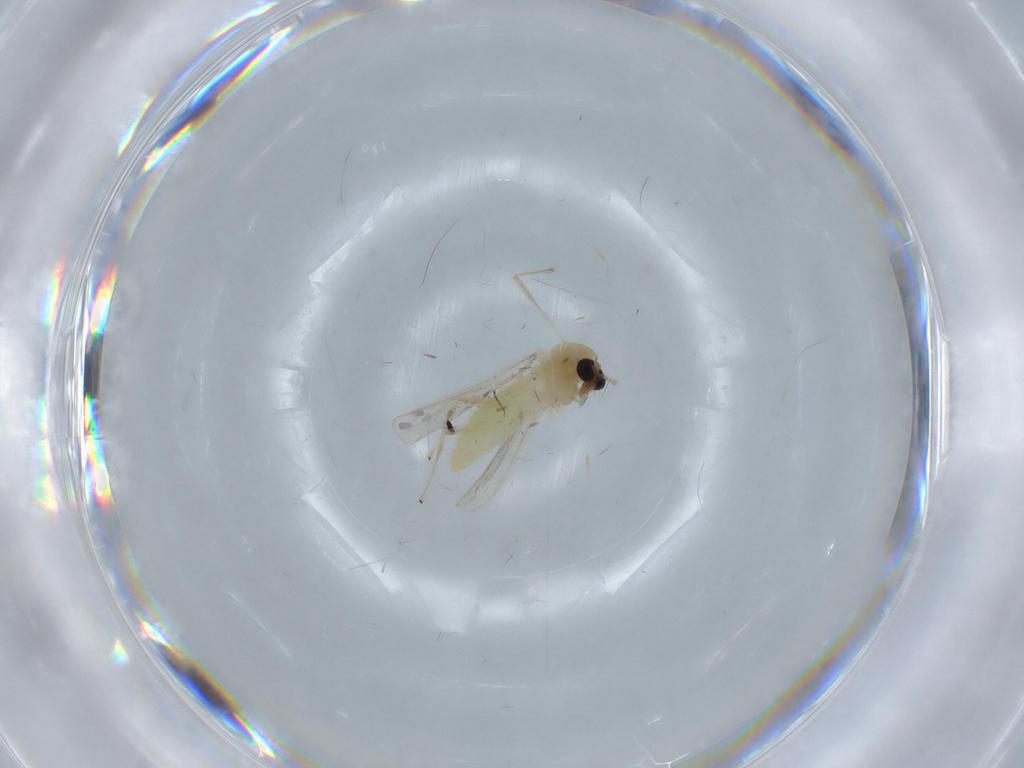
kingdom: Animalia
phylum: Arthropoda
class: Insecta
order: Diptera
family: Chironomidae
